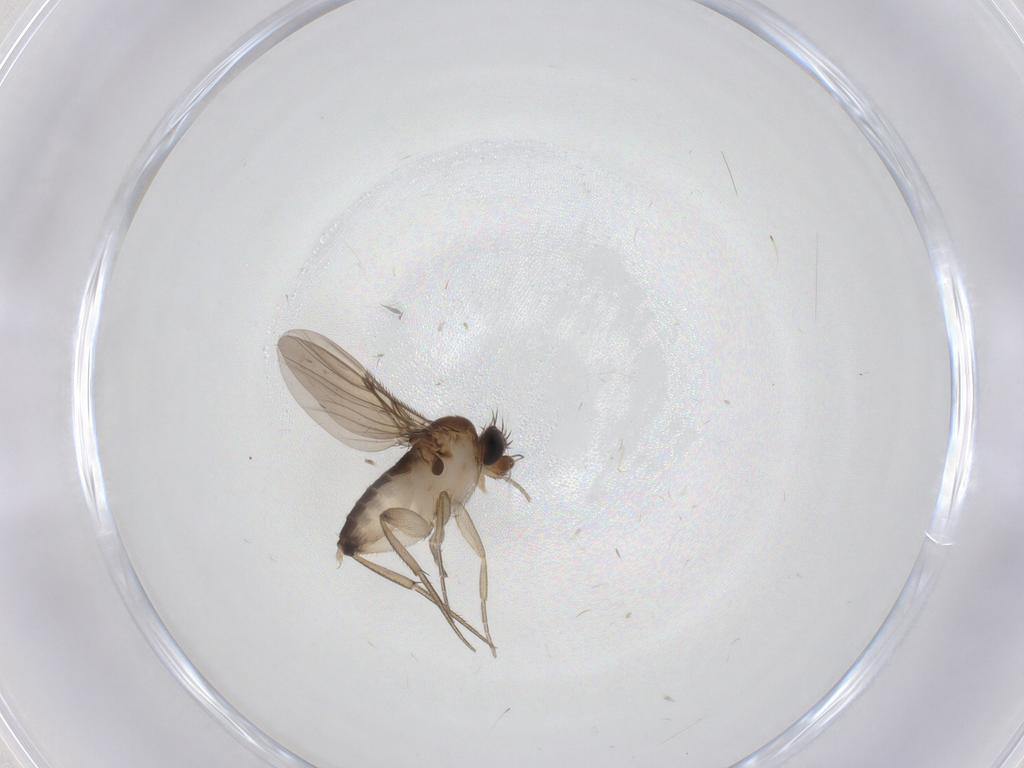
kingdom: Animalia
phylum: Arthropoda
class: Insecta
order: Diptera
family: Phoridae
